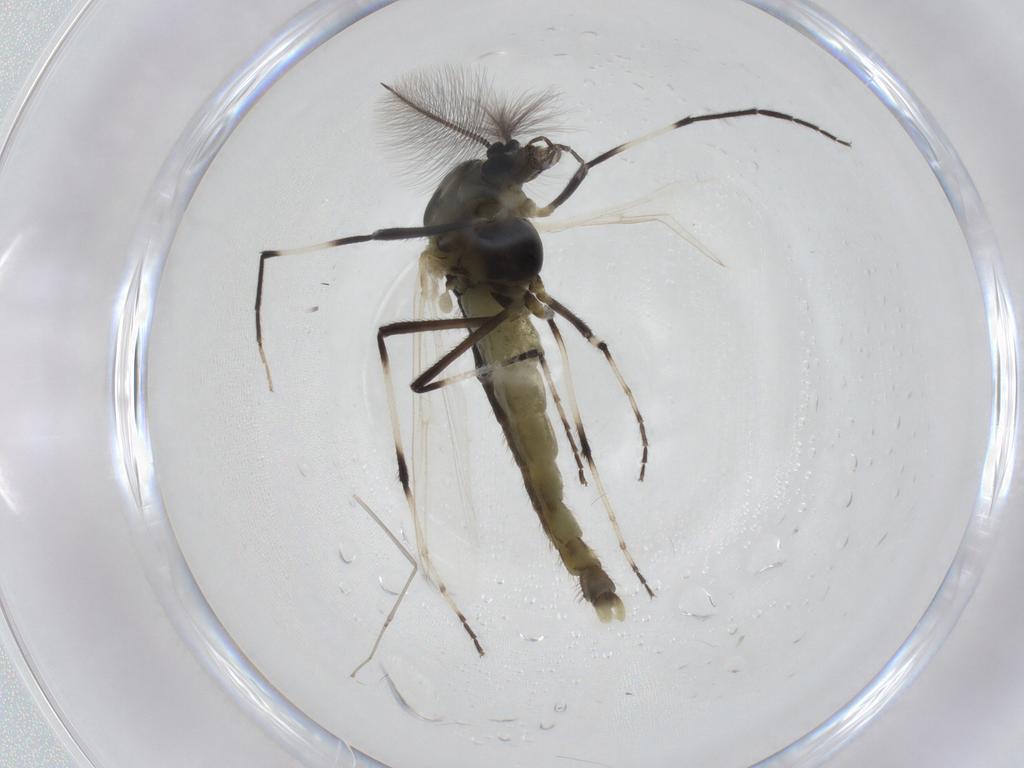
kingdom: Animalia
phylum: Arthropoda
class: Insecta
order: Diptera
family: Chironomidae
